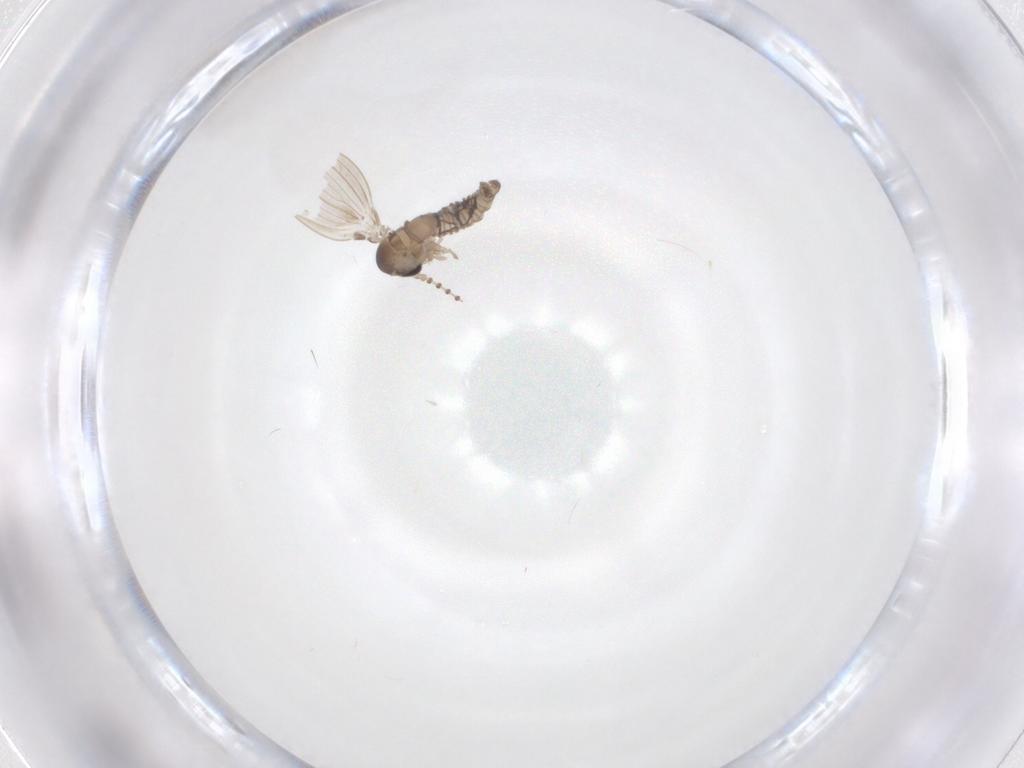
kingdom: Animalia
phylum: Arthropoda
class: Insecta
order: Diptera
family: Psychodidae
